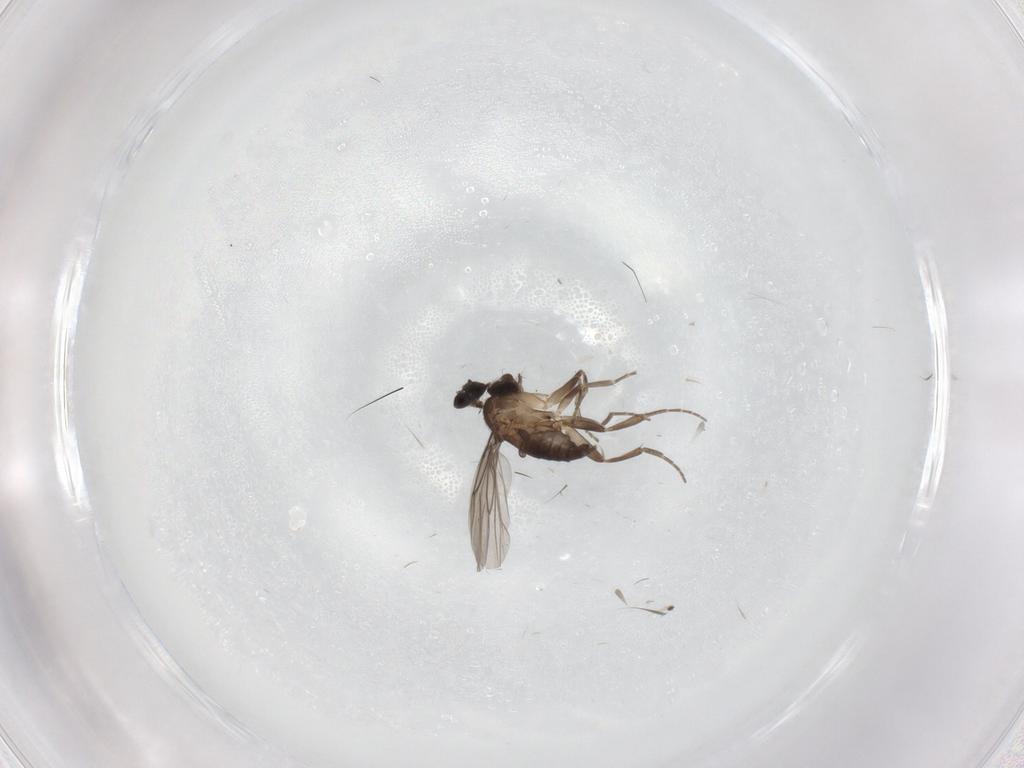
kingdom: Animalia
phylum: Arthropoda
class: Insecta
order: Diptera
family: Cecidomyiidae
